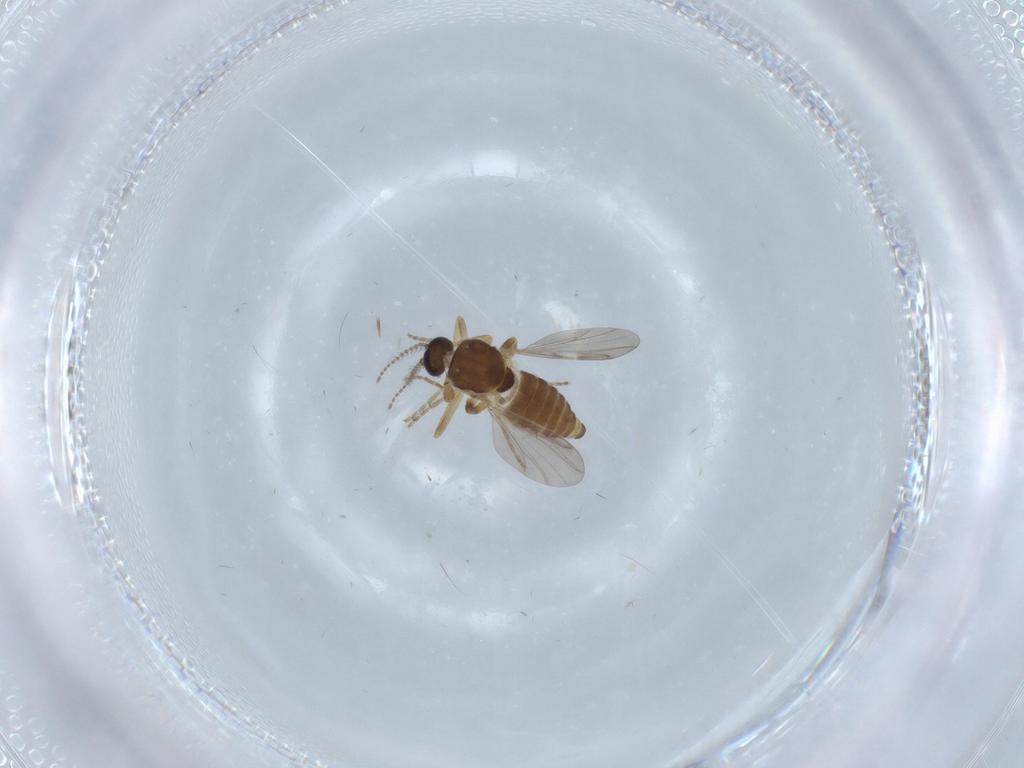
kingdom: Animalia
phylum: Arthropoda
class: Insecta
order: Diptera
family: Ceratopogonidae
